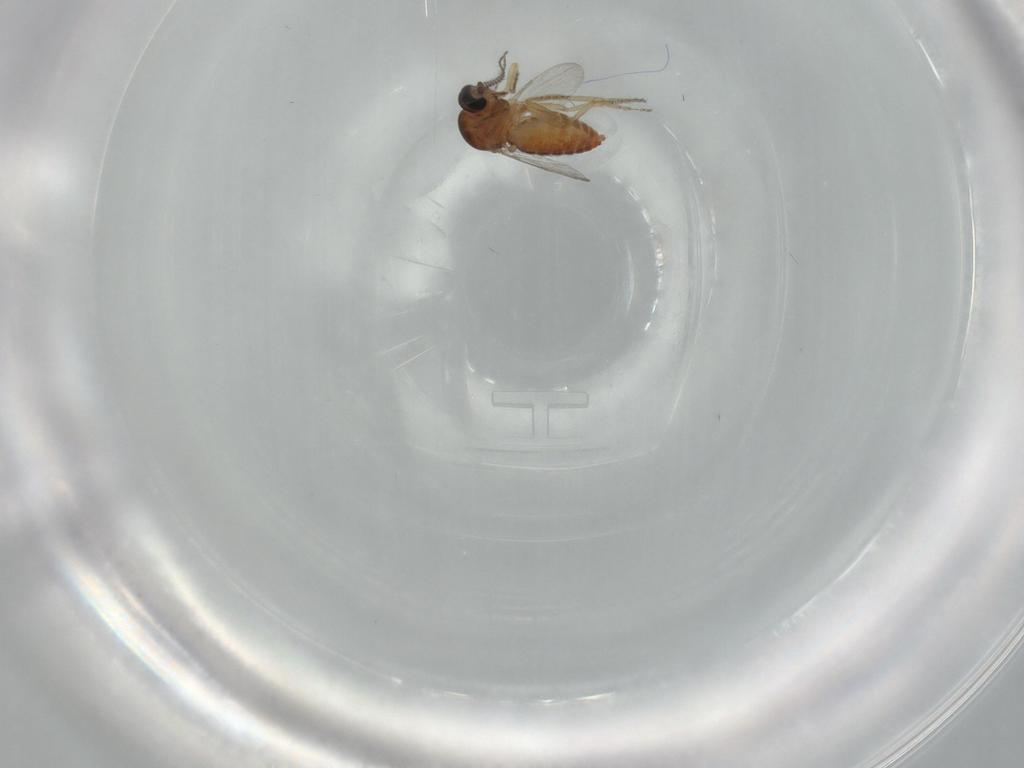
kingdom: Animalia
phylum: Arthropoda
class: Insecta
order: Diptera
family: Ceratopogonidae
